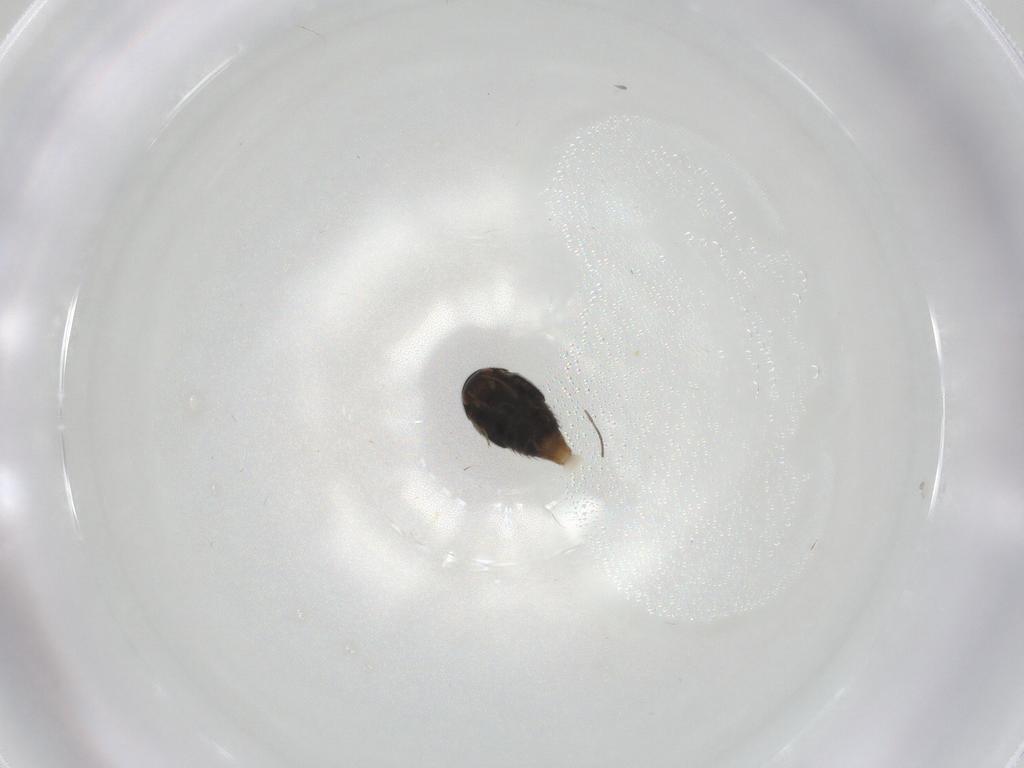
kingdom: Animalia
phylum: Arthropoda
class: Insecta
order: Coleoptera
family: Staphylinidae
